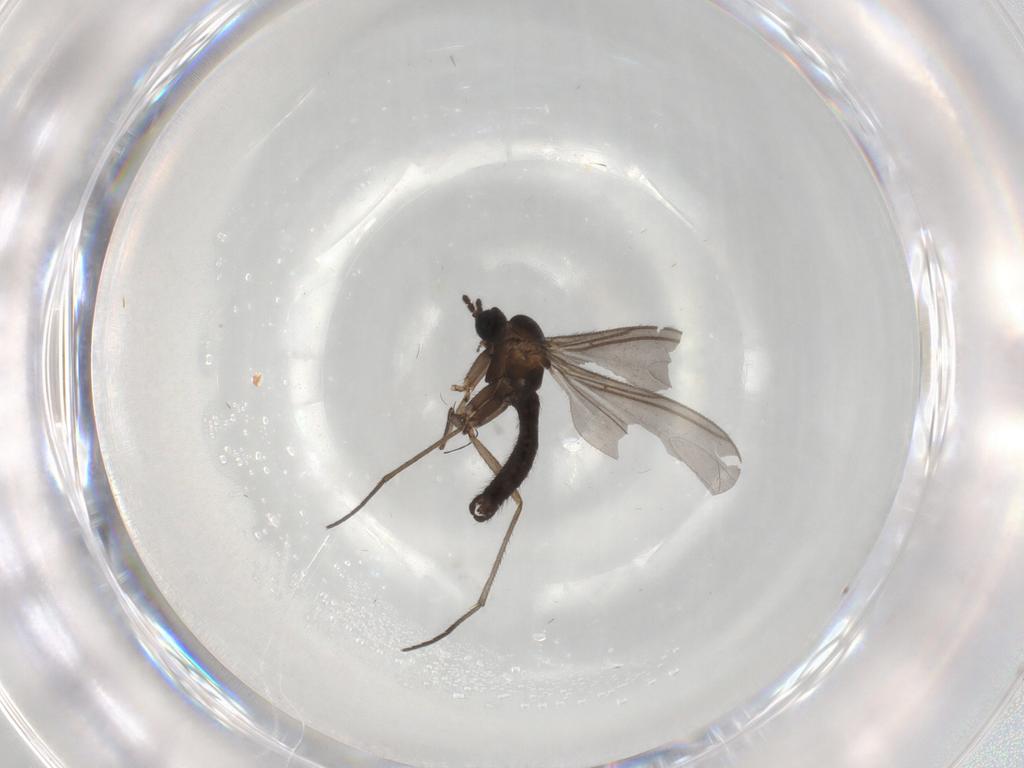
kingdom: Animalia
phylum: Arthropoda
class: Insecta
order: Diptera
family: Sciaridae
